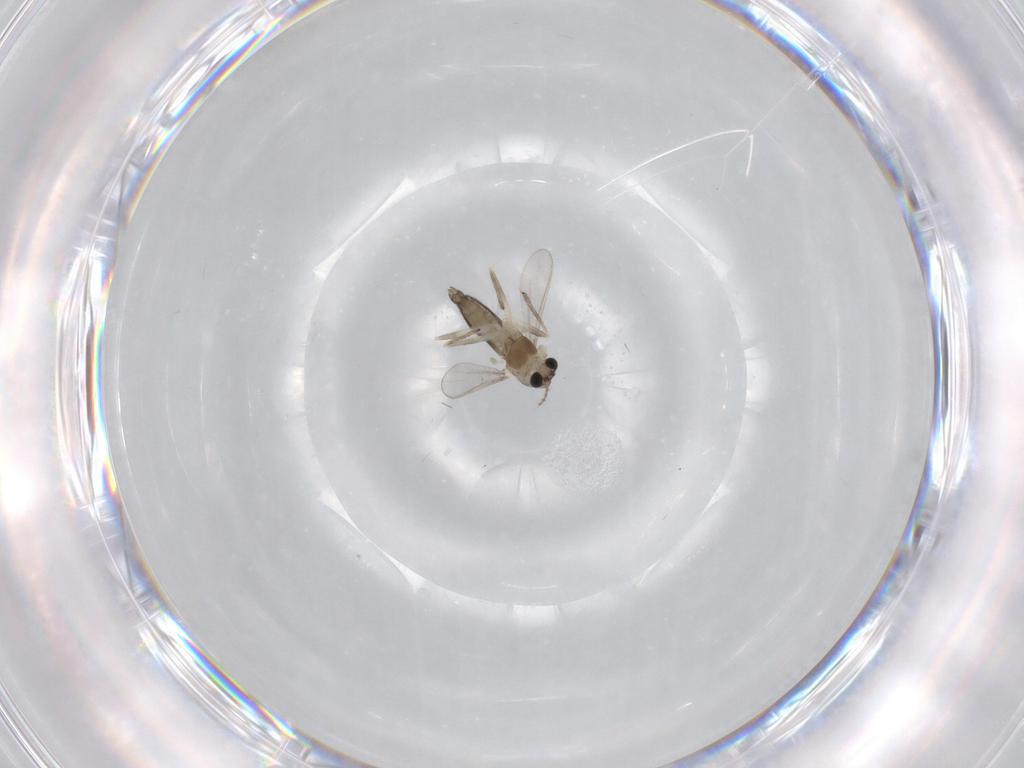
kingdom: Animalia
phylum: Arthropoda
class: Insecta
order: Diptera
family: Chironomidae
